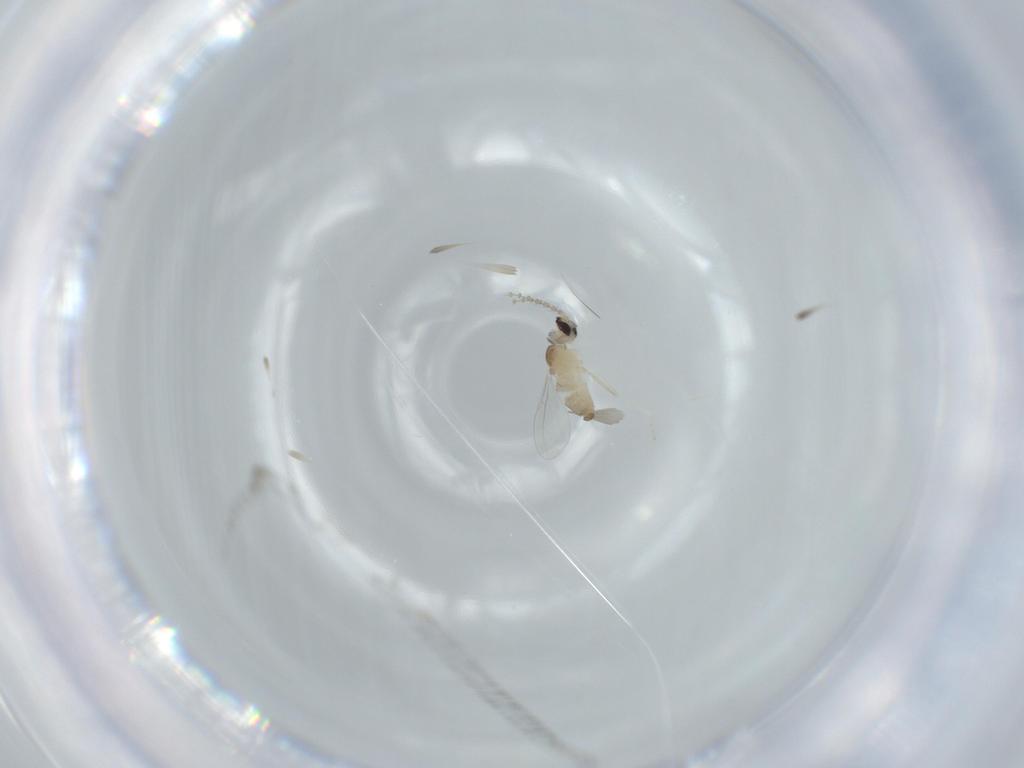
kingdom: Animalia
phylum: Arthropoda
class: Insecta
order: Diptera
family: Cecidomyiidae
